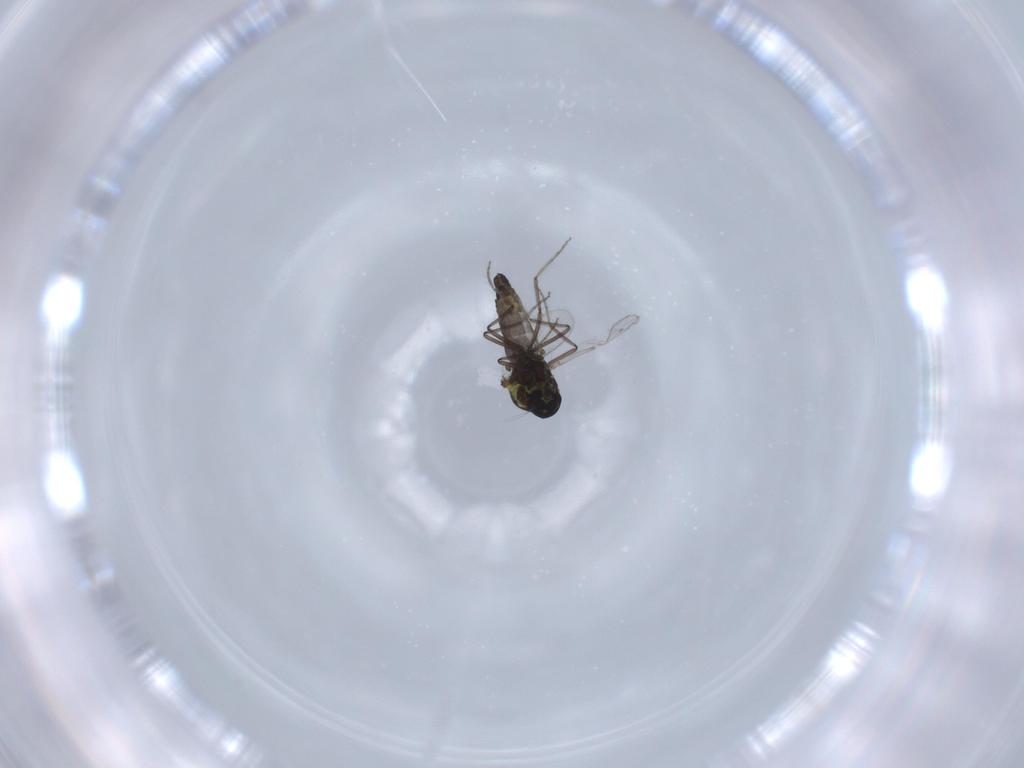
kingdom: Animalia
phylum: Arthropoda
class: Insecta
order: Diptera
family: Ceratopogonidae
